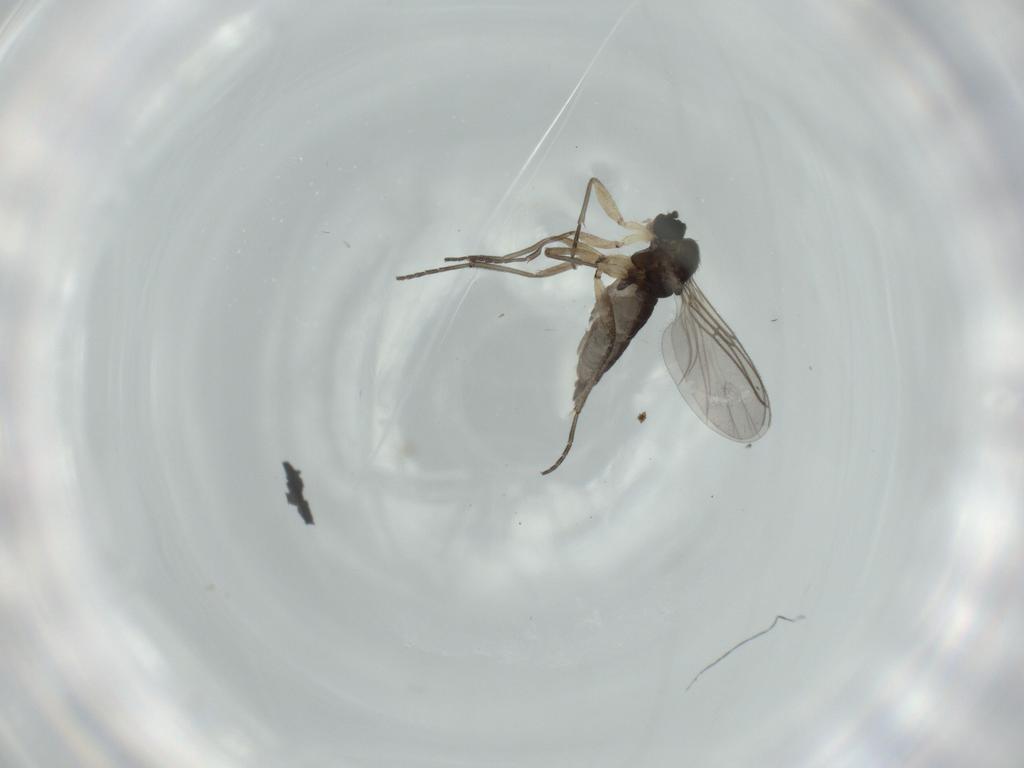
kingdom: Animalia
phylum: Arthropoda
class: Insecta
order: Diptera
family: Sciaridae
